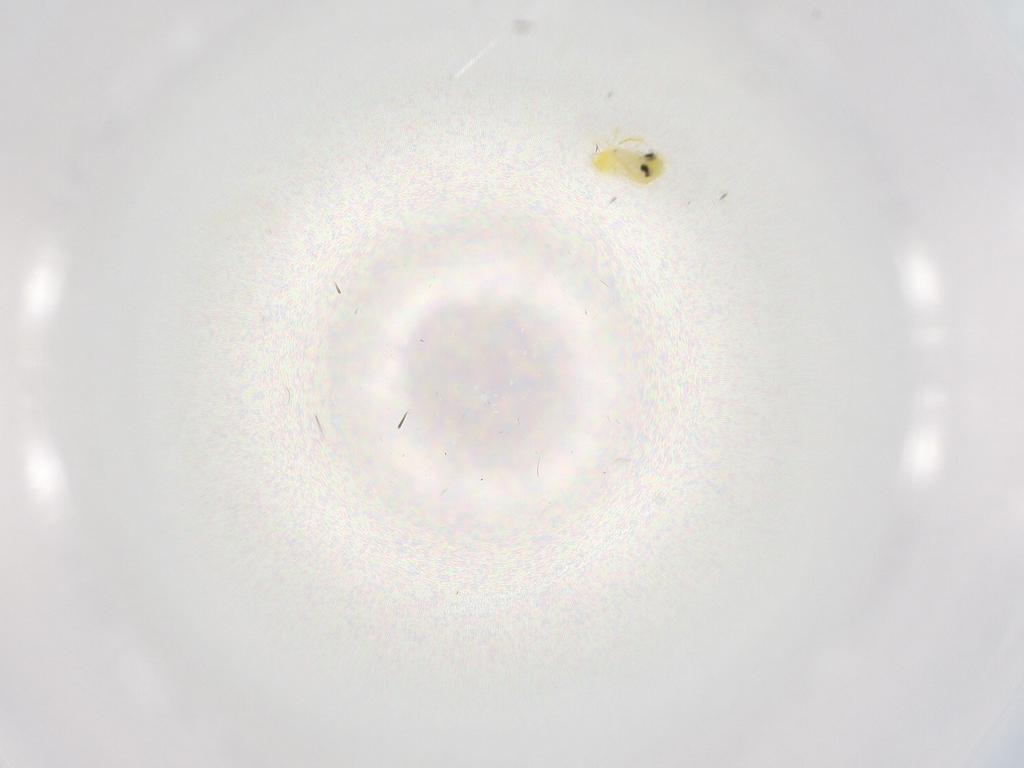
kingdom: Animalia
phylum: Arthropoda
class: Insecta
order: Hemiptera
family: Aleyrodidae
